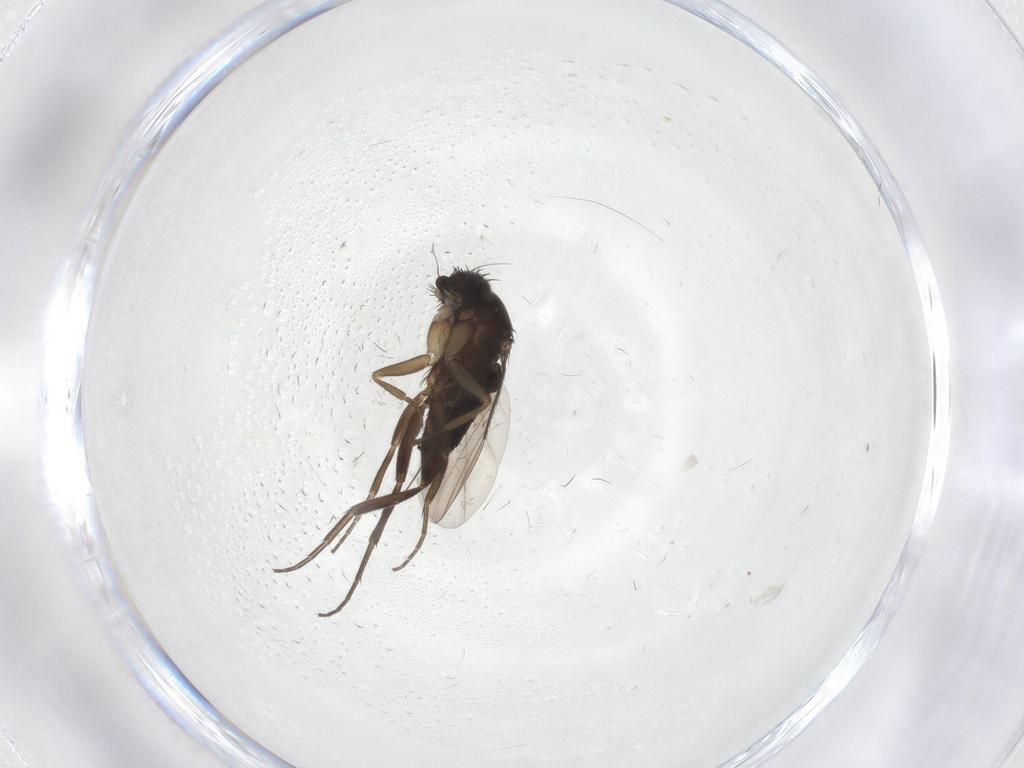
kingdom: Animalia
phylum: Arthropoda
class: Insecta
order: Diptera
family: Phoridae
